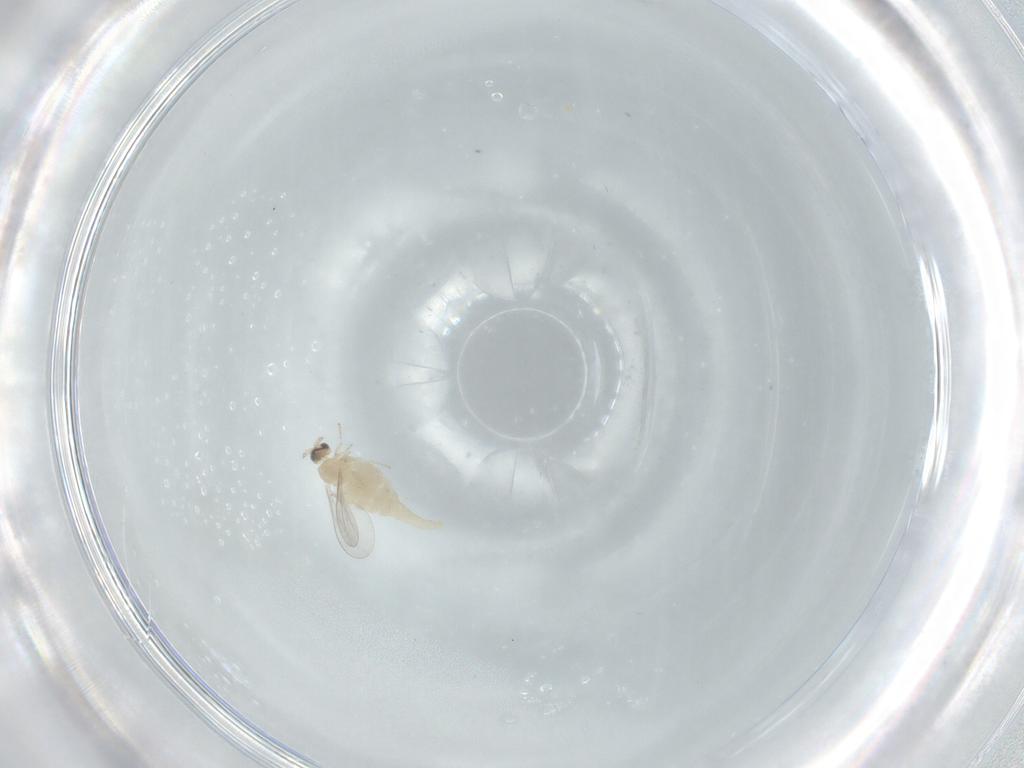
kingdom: Animalia
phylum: Arthropoda
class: Insecta
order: Diptera
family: Cecidomyiidae
